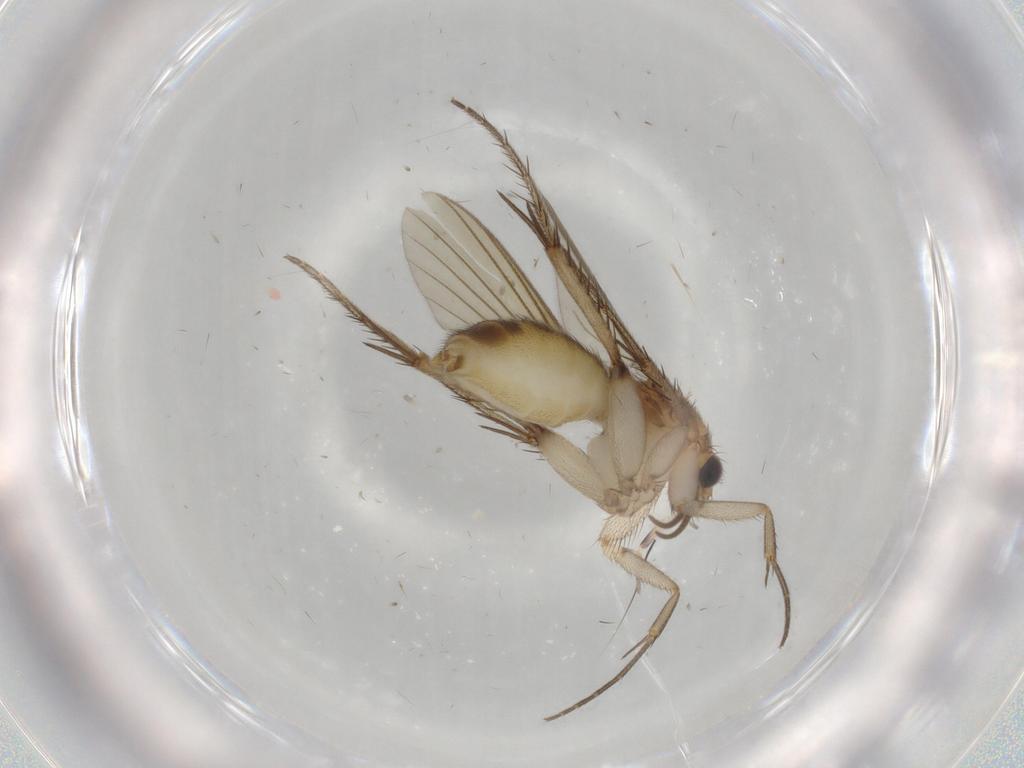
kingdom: Animalia
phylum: Arthropoda
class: Insecta
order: Diptera
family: Mycetophilidae
